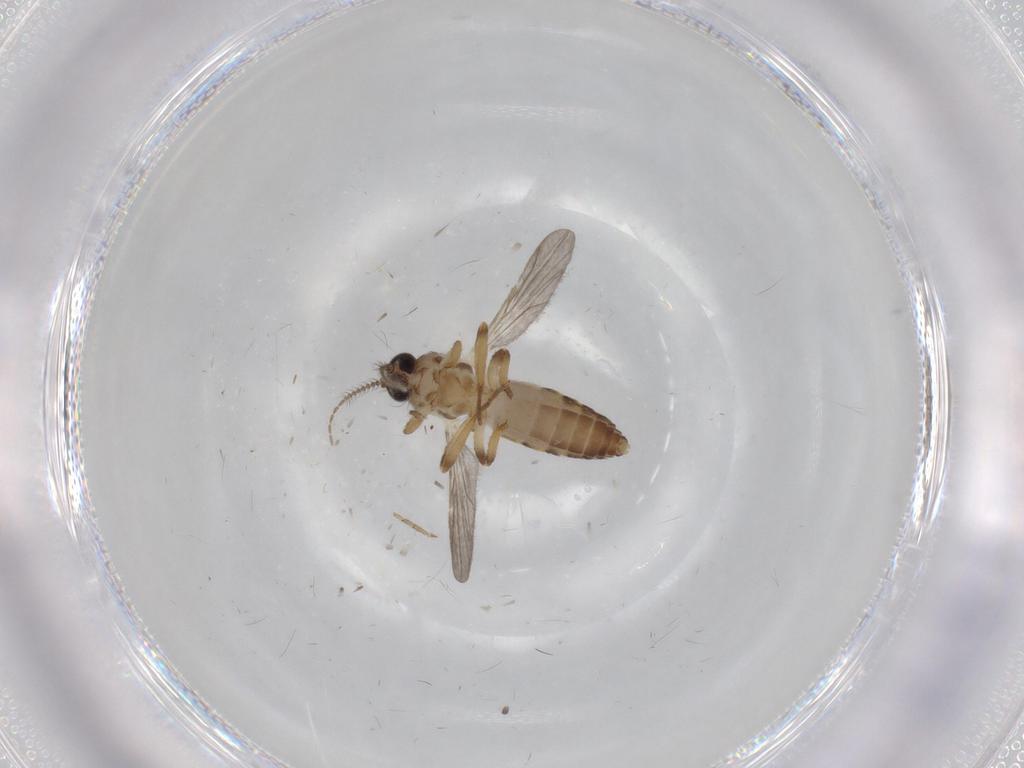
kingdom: Animalia
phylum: Arthropoda
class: Insecta
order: Diptera
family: Ceratopogonidae
